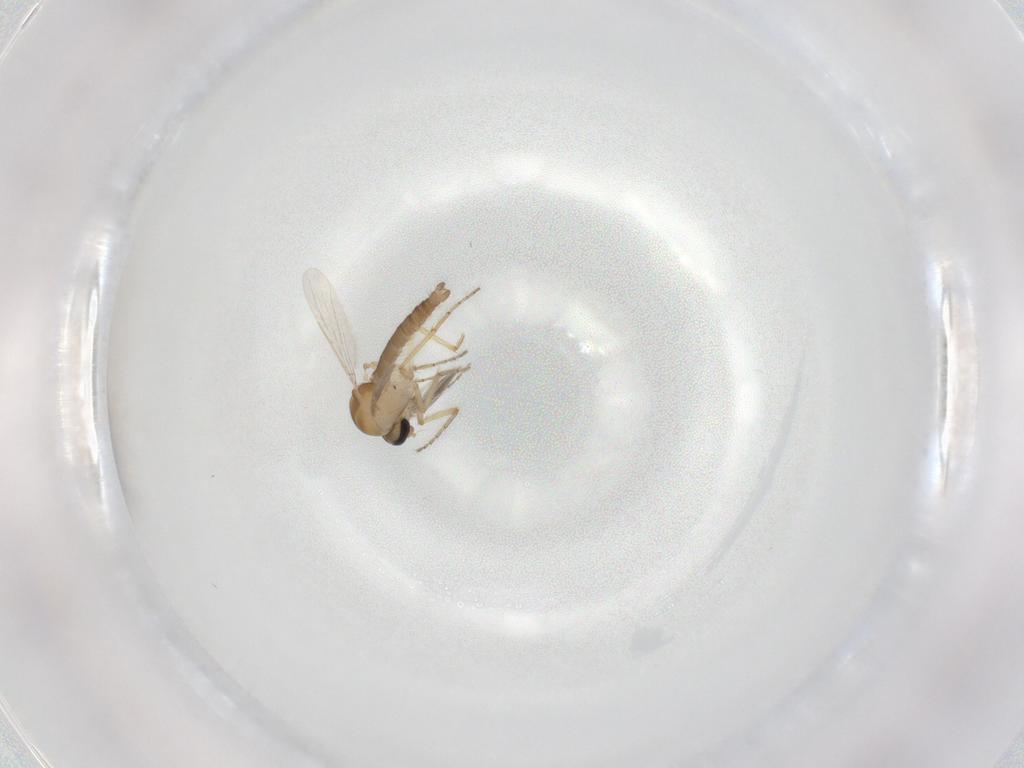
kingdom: Animalia
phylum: Arthropoda
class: Insecta
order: Diptera
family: Ceratopogonidae
